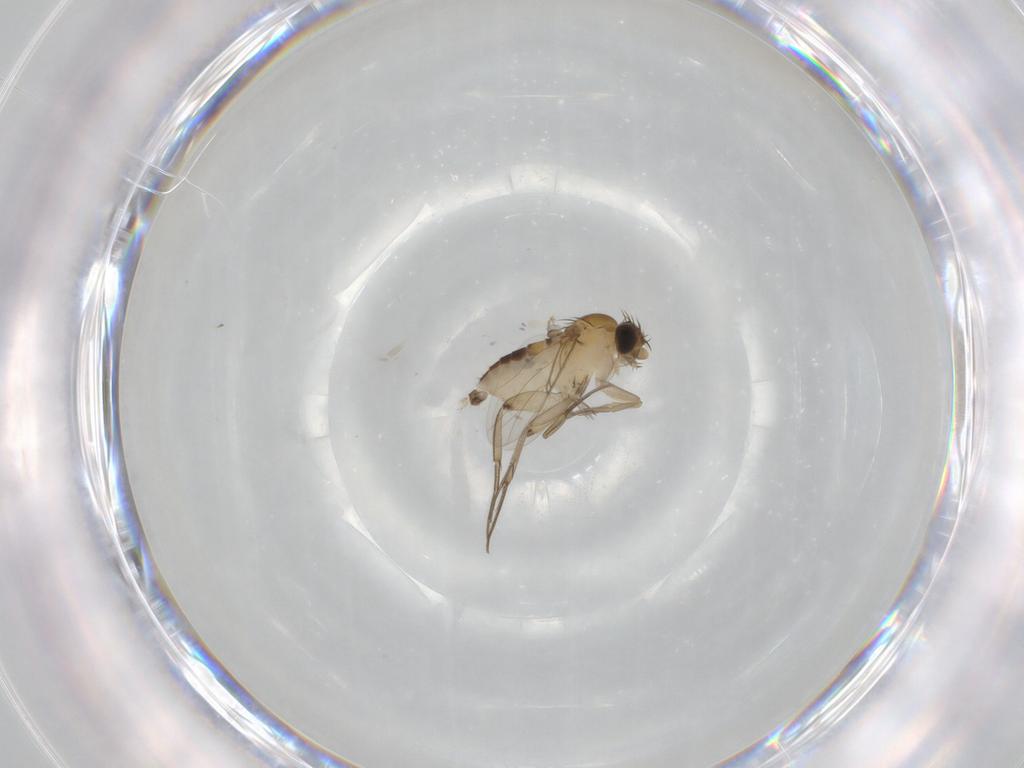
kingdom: Animalia
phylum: Arthropoda
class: Insecta
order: Diptera
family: Phoridae
